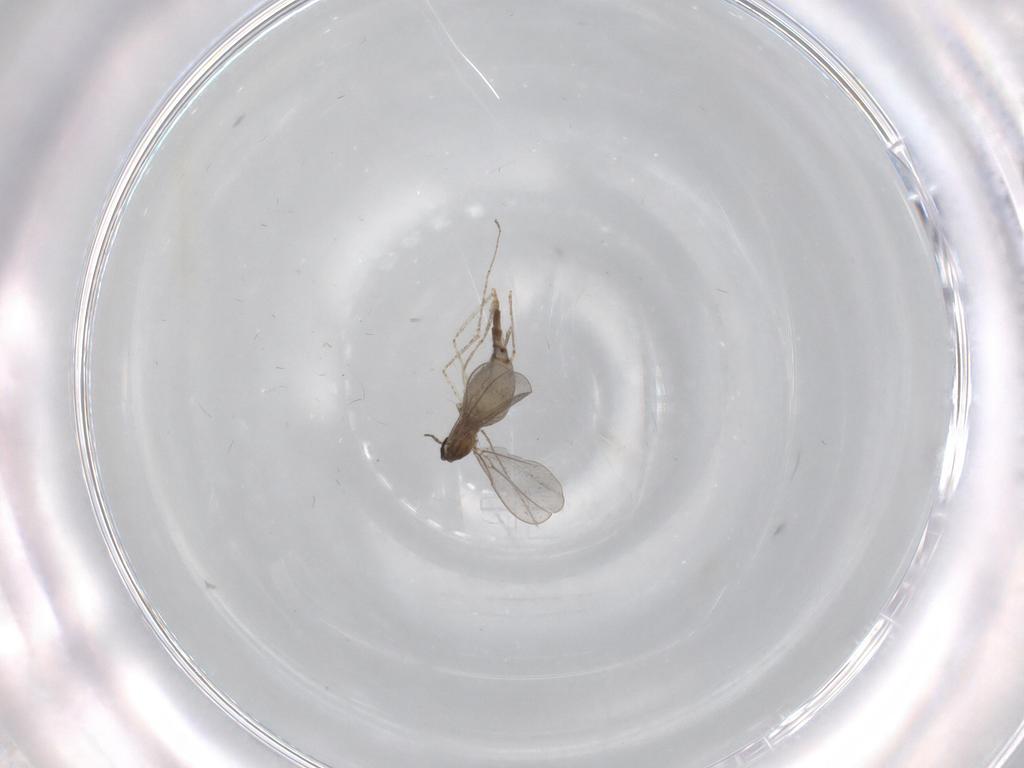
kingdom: Animalia
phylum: Arthropoda
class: Insecta
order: Diptera
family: Cecidomyiidae
